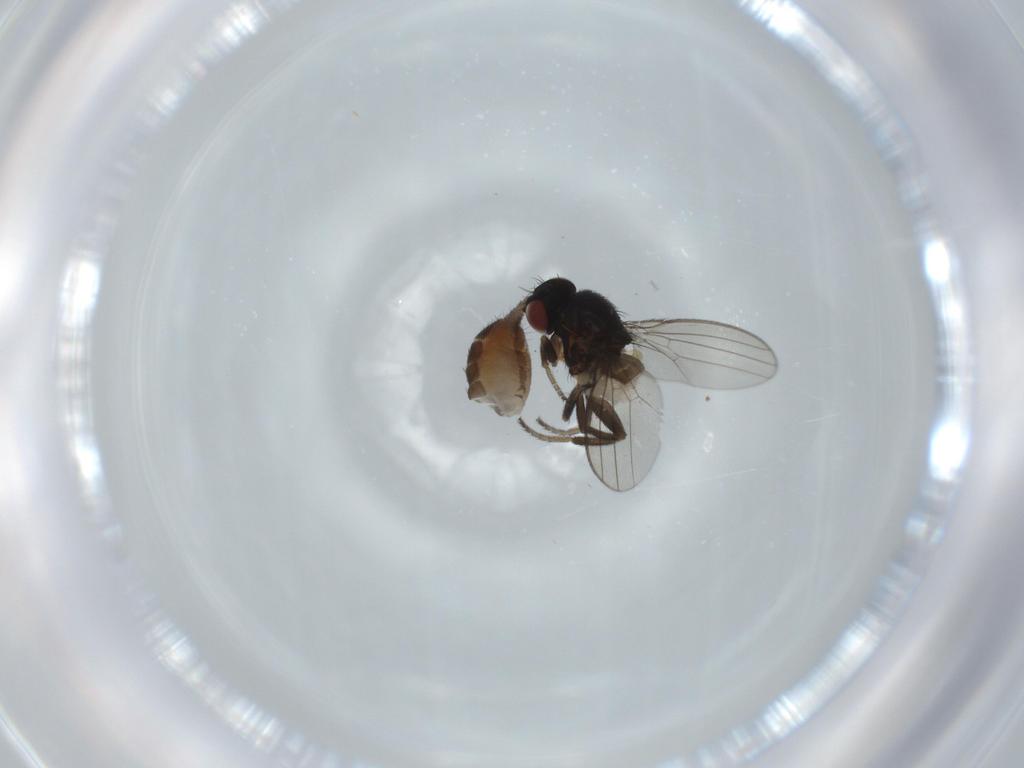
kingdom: Animalia
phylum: Arthropoda
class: Insecta
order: Diptera
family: Milichiidae
